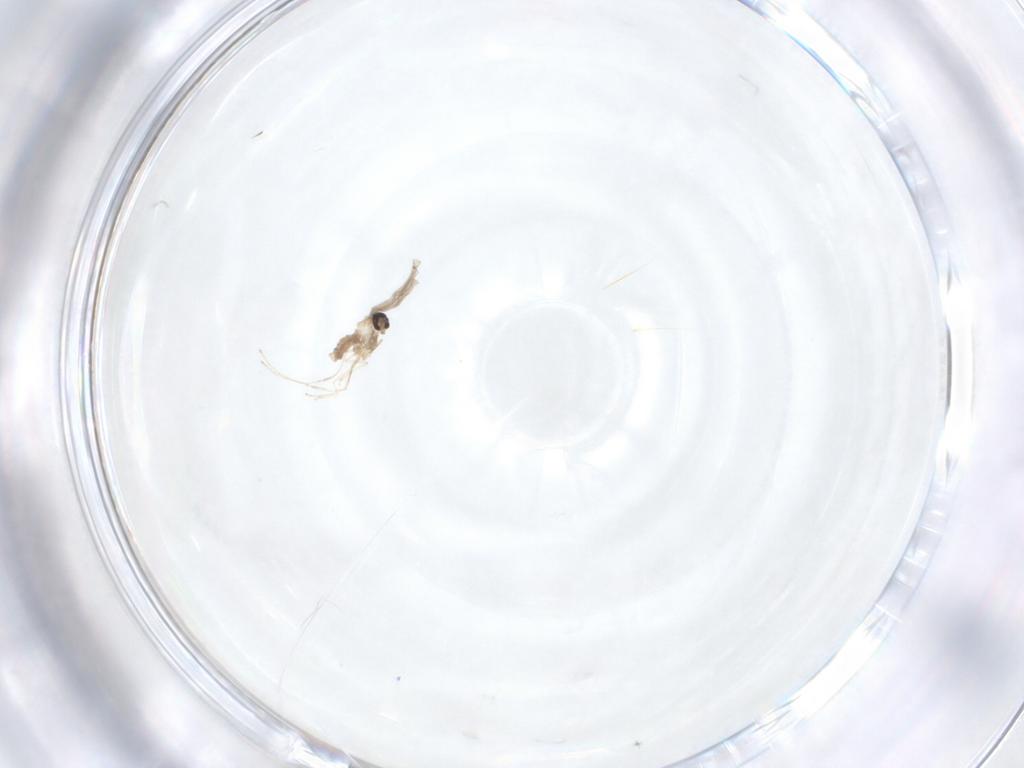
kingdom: Animalia
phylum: Arthropoda
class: Insecta
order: Diptera
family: Cecidomyiidae
